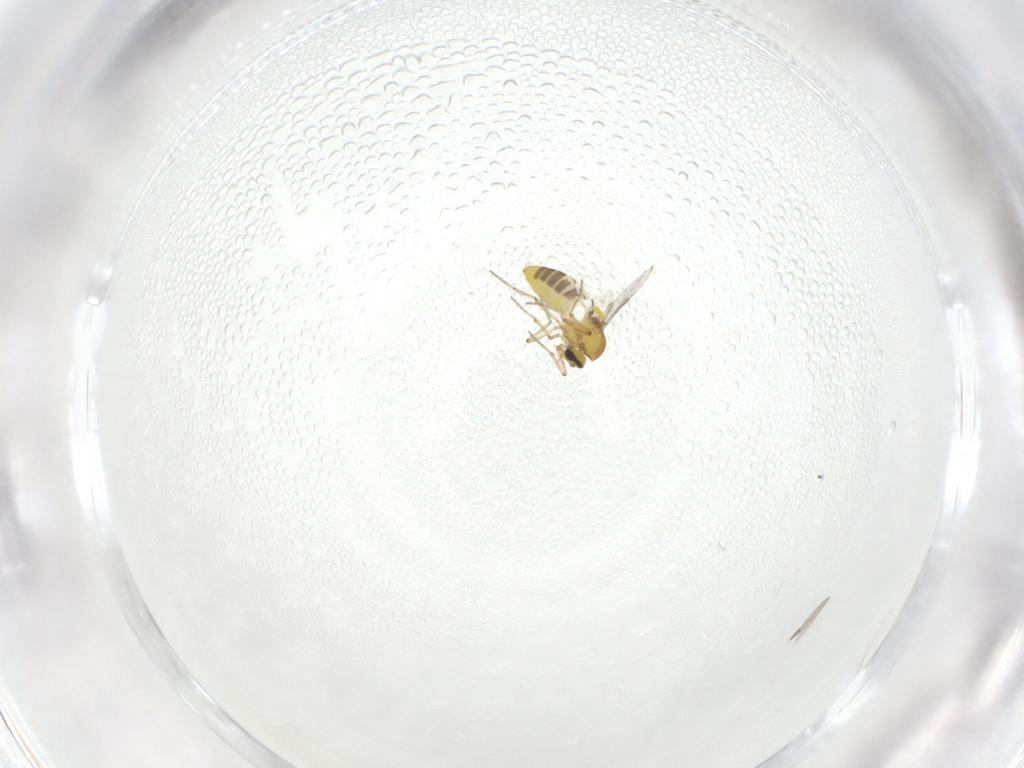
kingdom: Animalia
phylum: Arthropoda
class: Insecta
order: Diptera
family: Ceratopogonidae
